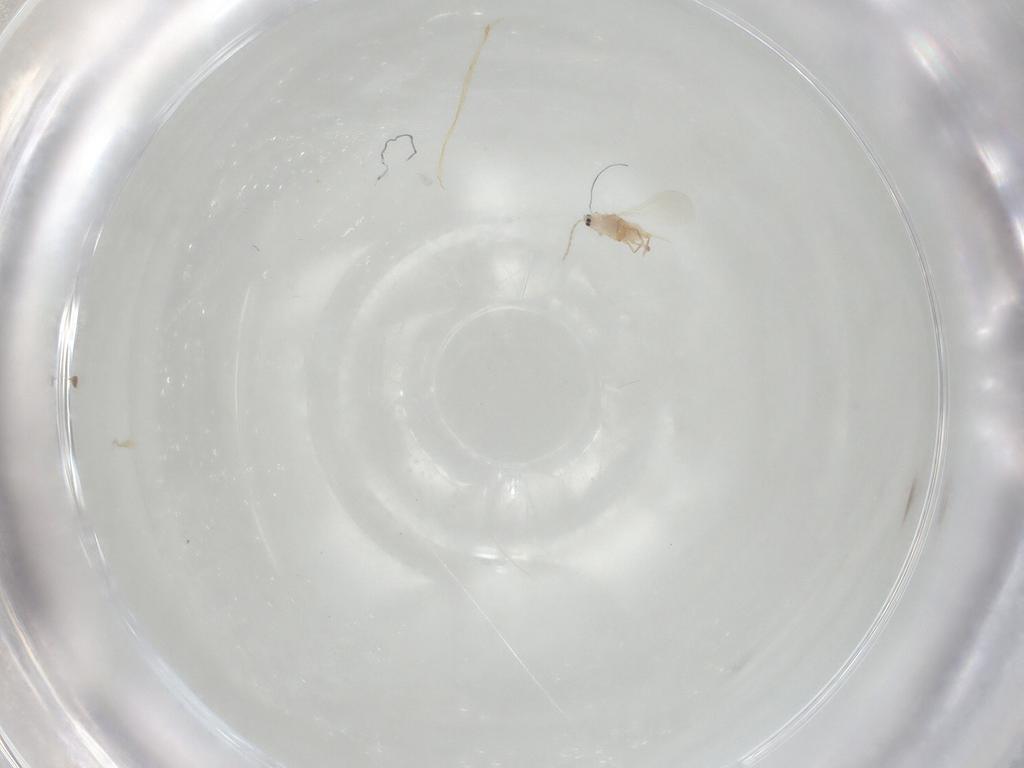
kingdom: Animalia
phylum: Arthropoda
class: Insecta
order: Hemiptera
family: Diaspididae
